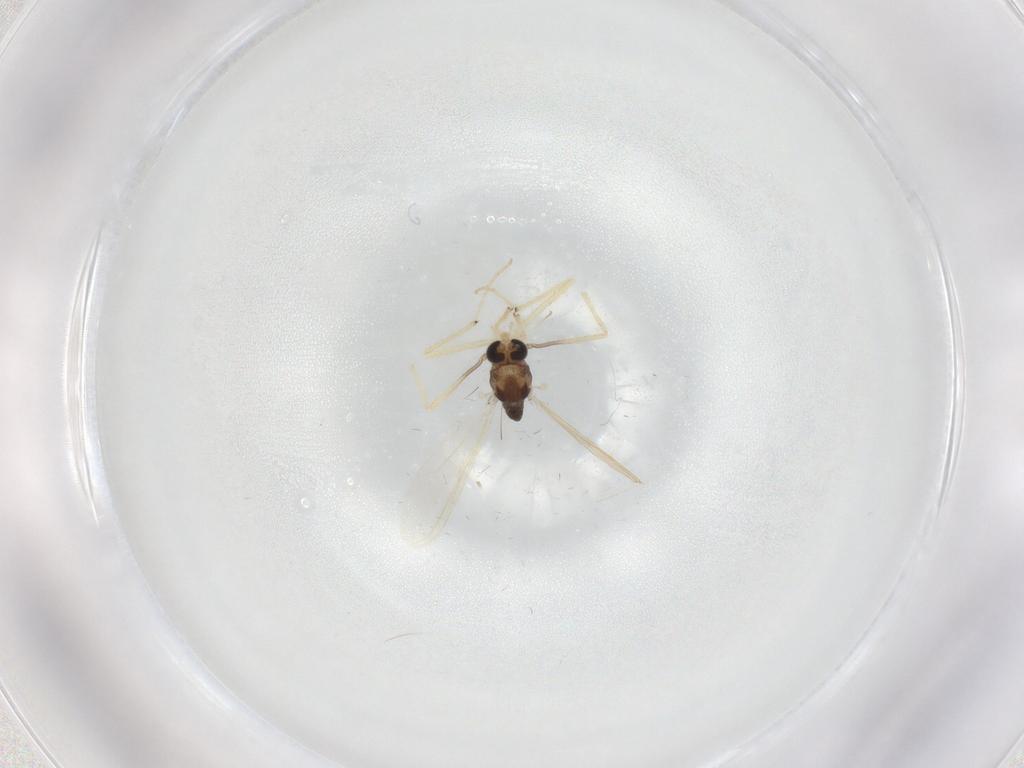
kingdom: Animalia
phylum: Arthropoda
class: Insecta
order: Diptera
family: Chironomidae
